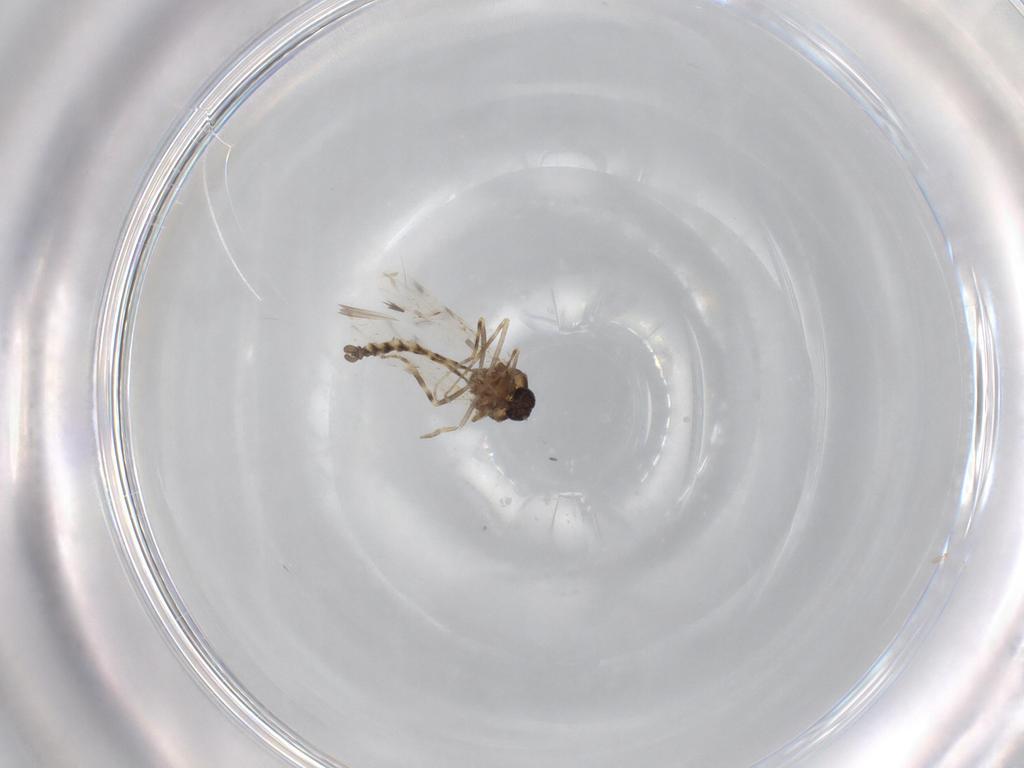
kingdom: Animalia
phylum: Arthropoda
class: Insecta
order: Diptera
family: Ceratopogonidae
